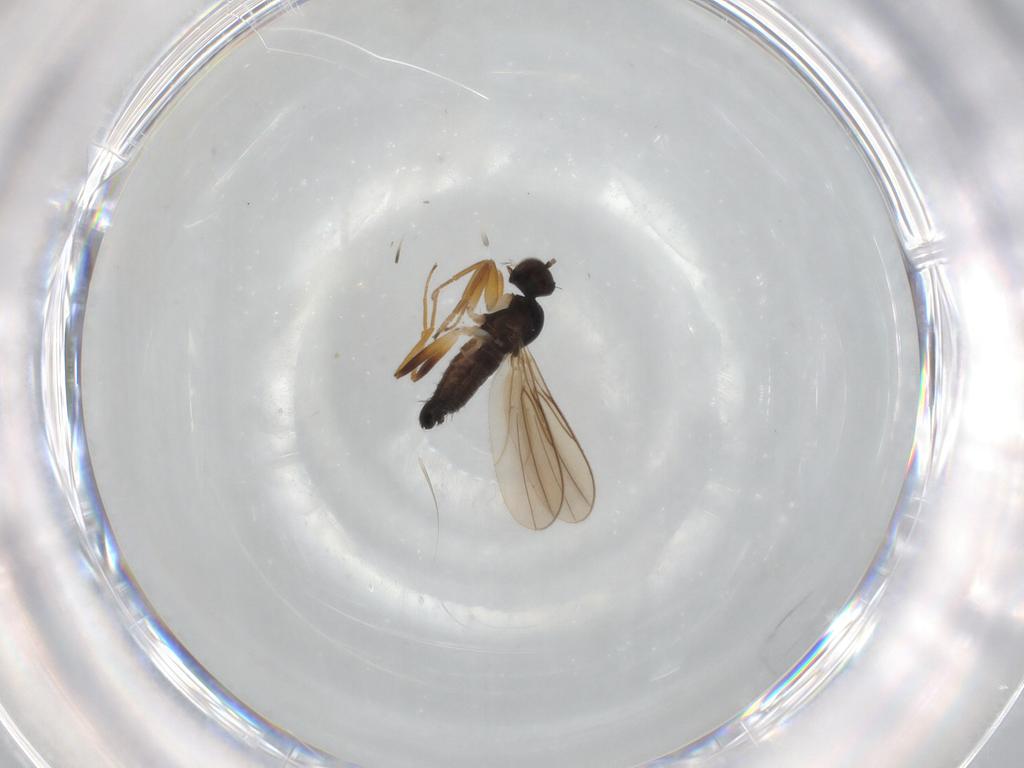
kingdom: Animalia
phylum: Arthropoda
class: Insecta
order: Diptera
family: Hybotidae
